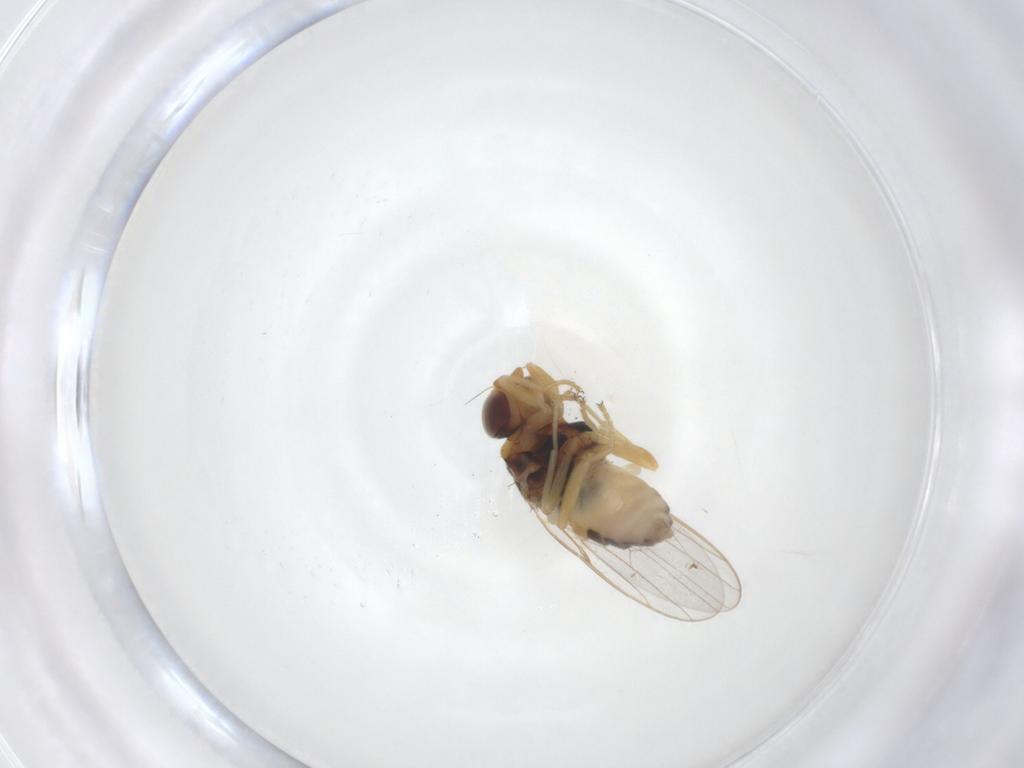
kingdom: Animalia
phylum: Arthropoda
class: Insecta
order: Diptera
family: Chloropidae
